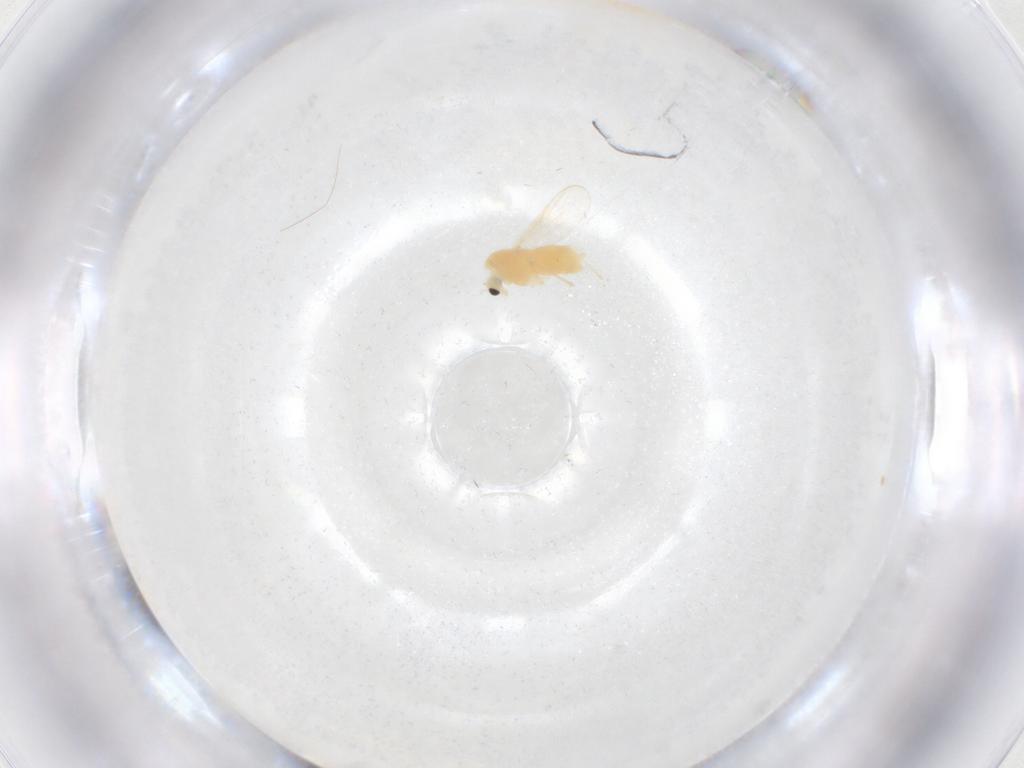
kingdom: Animalia
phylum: Arthropoda
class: Insecta
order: Diptera
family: Chironomidae
